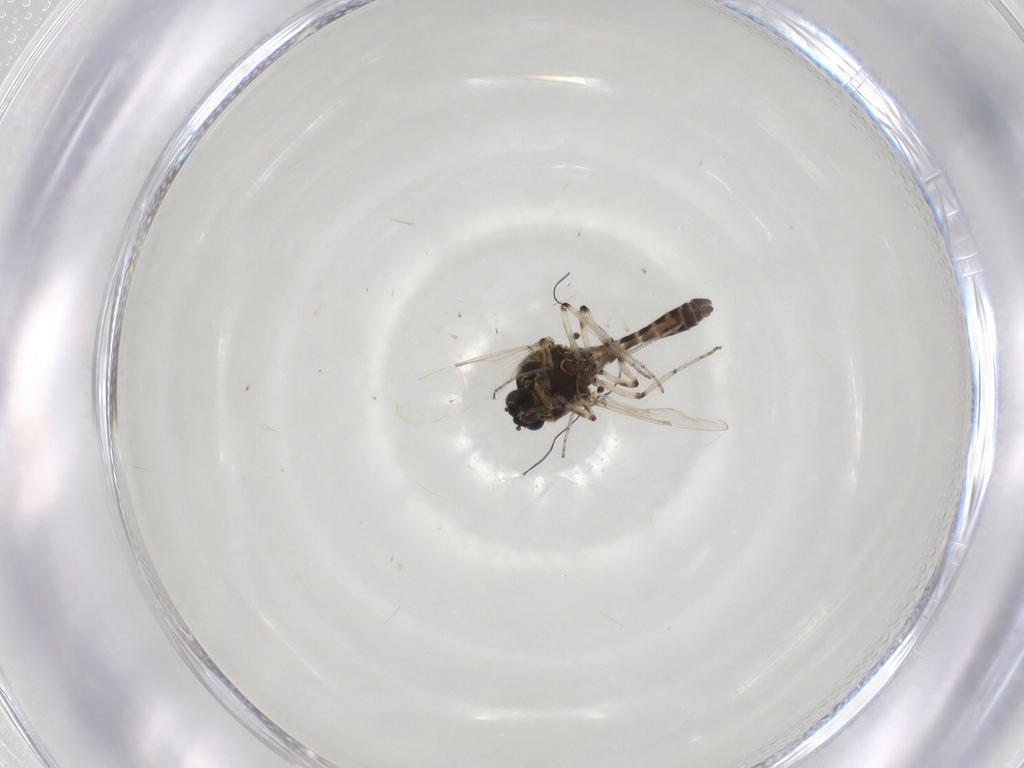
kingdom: Animalia
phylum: Arthropoda
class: Insecta
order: Diptera
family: Ceratopogonidae
